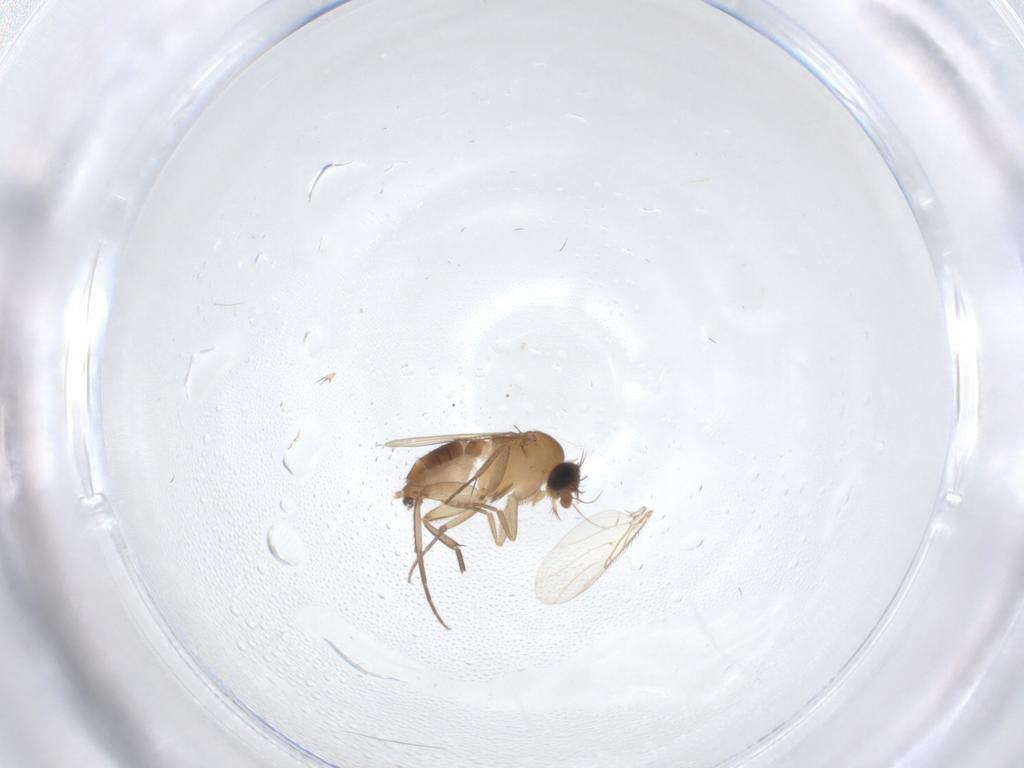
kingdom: Animalia
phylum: Arthropoda
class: Insecta
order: Diptera
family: Phoridae
